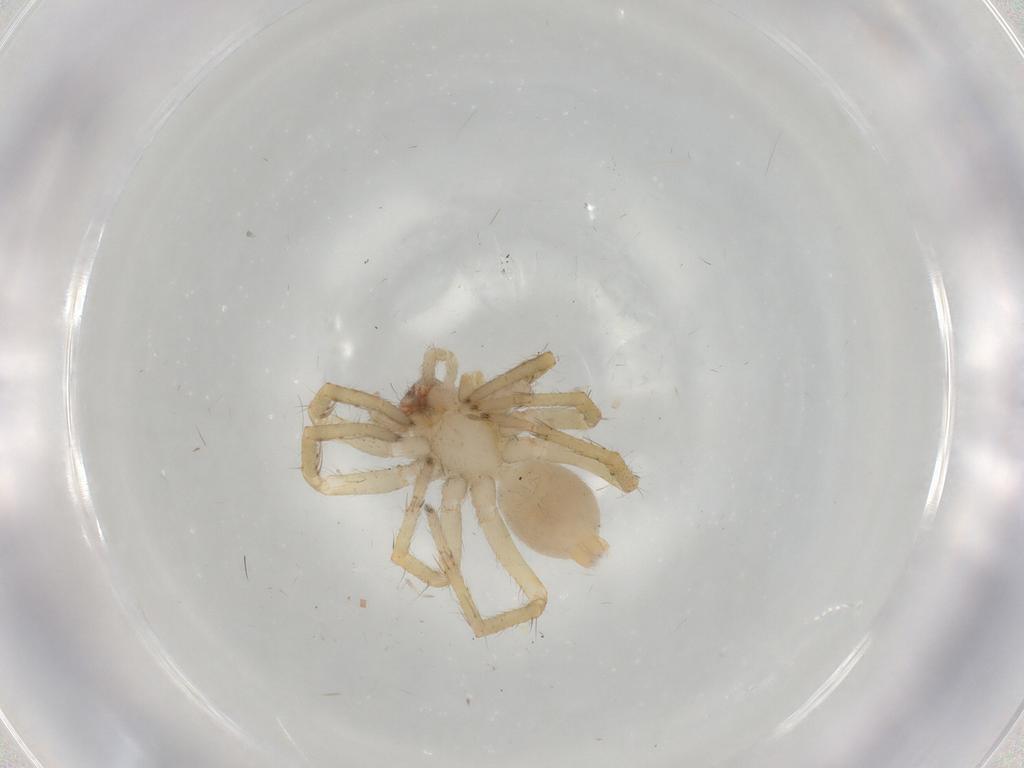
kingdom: Animalia
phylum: Arthropoda
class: Arachnida
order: Araneae
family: Clubionidae
